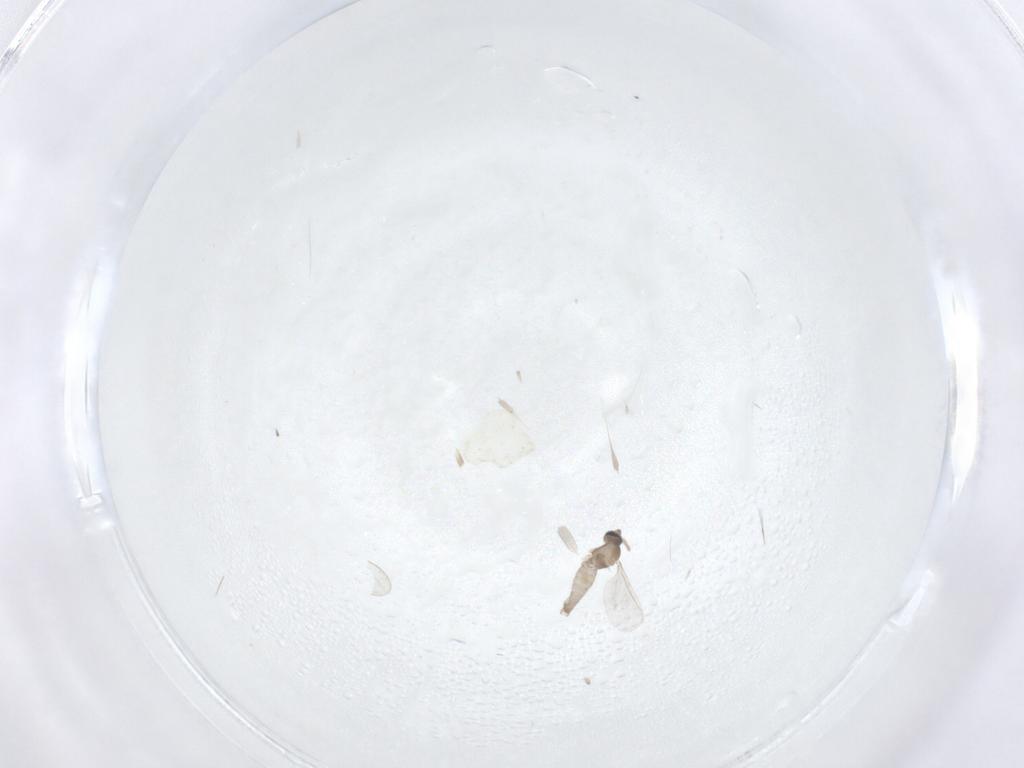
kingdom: Animalia
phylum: Arthropoda
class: Insecta
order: Diptera
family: Cecidomyiidae
